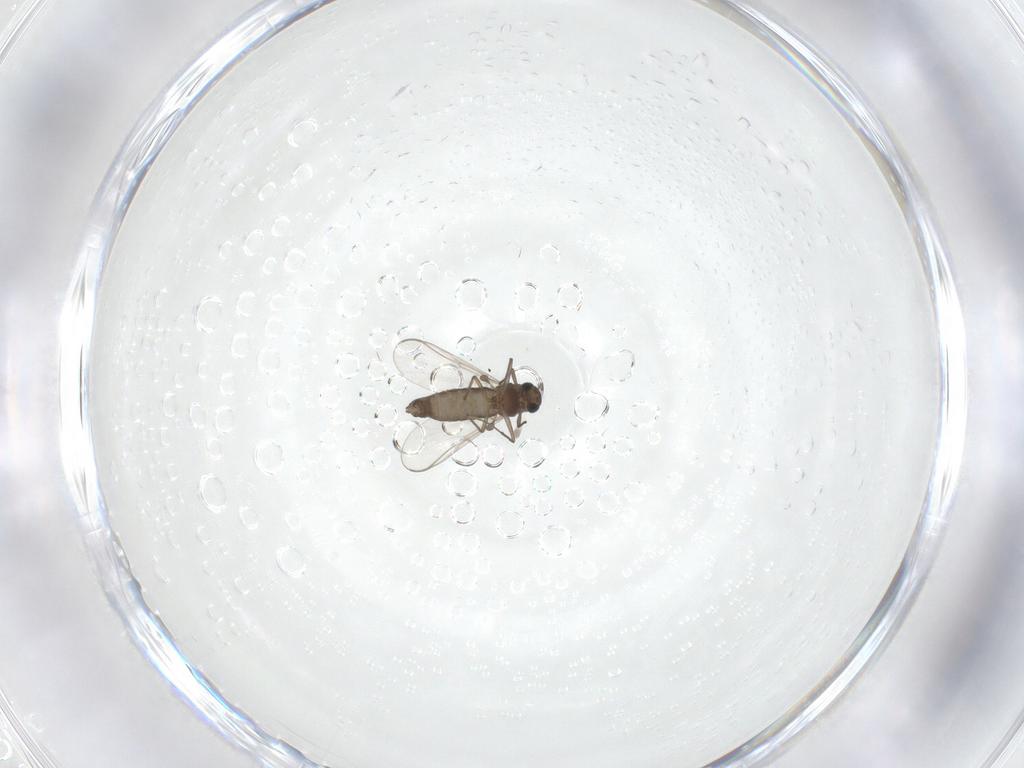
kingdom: Animalia
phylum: Arthropoda
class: Insecta
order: Diptera
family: Chironomidae
